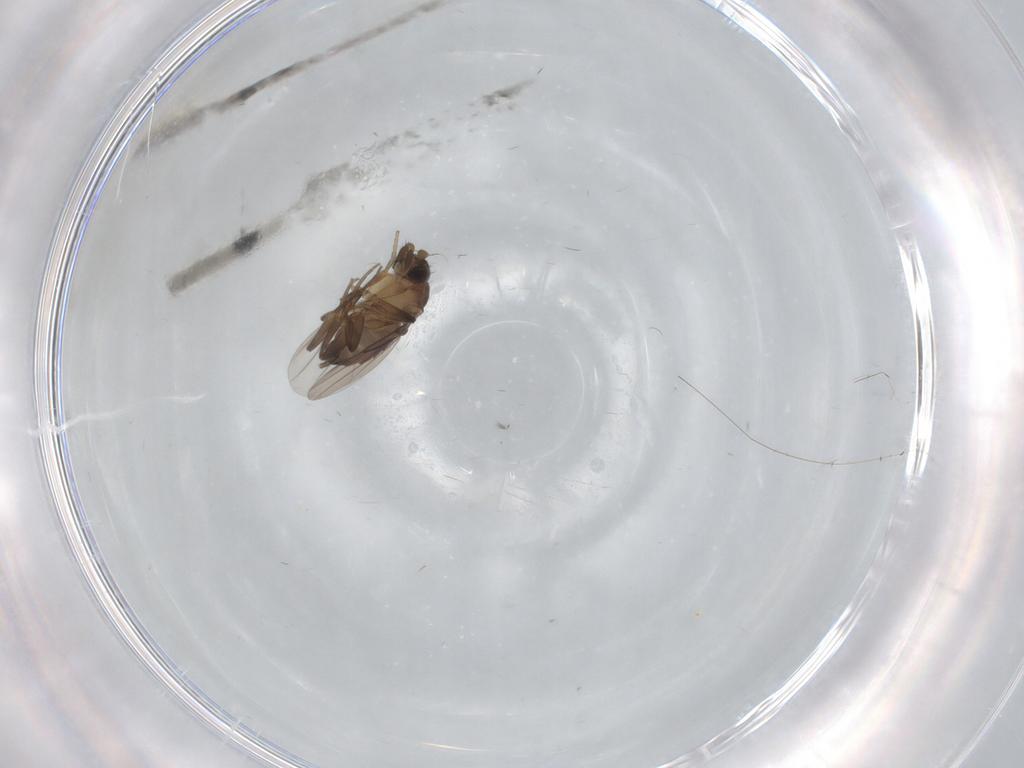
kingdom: Animalia
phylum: Arthropoda
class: Insecta
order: Diptera
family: Phoridae
